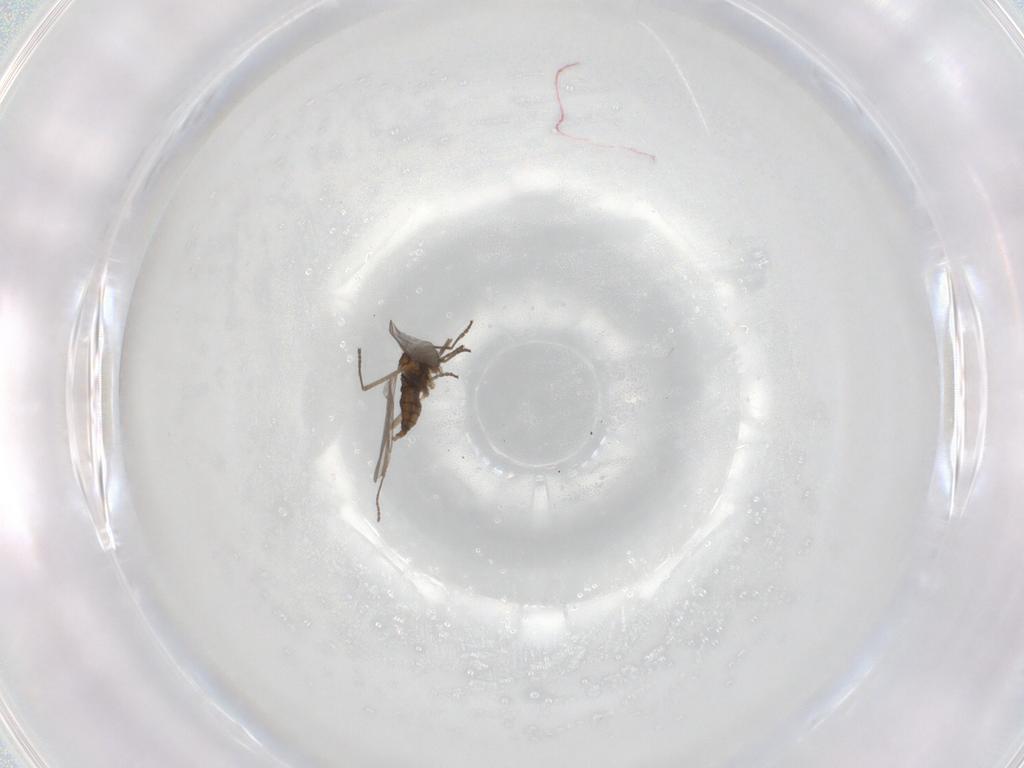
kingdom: Animalia
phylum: Arthropoda
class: Insecta
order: Diptera
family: Cecidomyiidae
